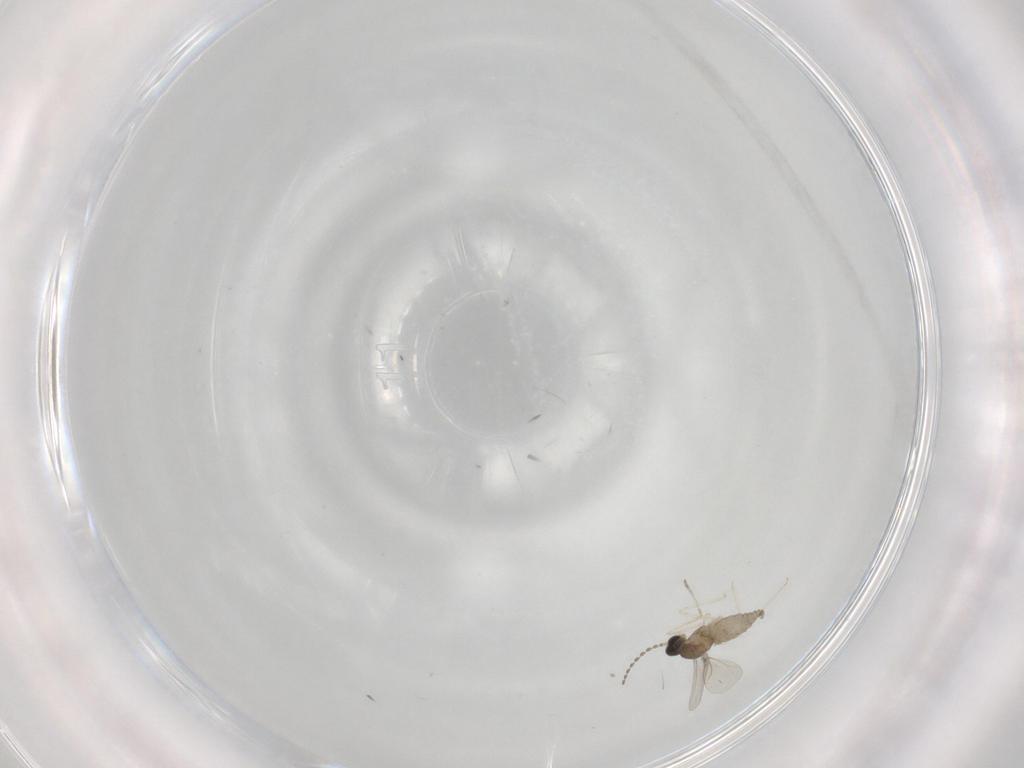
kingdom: Animalia
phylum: Arthropoda
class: Insecta
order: Diptera
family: Cecidomyiidae
